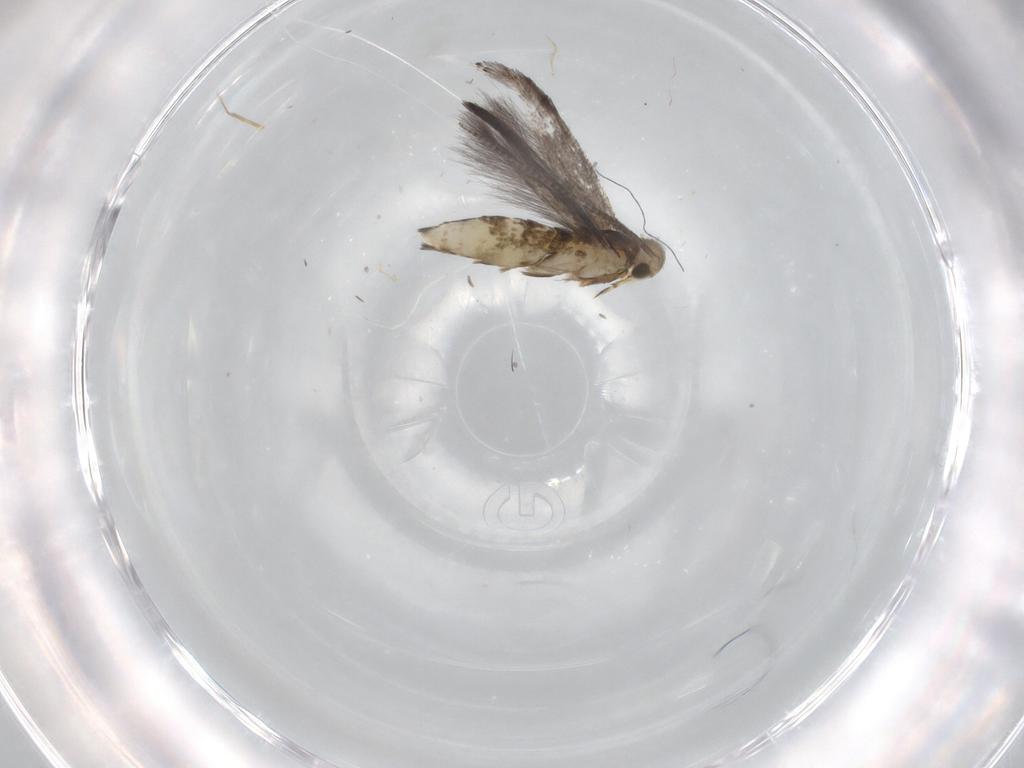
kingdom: Animalia
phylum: Arthropoda
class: Insecta
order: Lepidoptera
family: Gracillariidae
